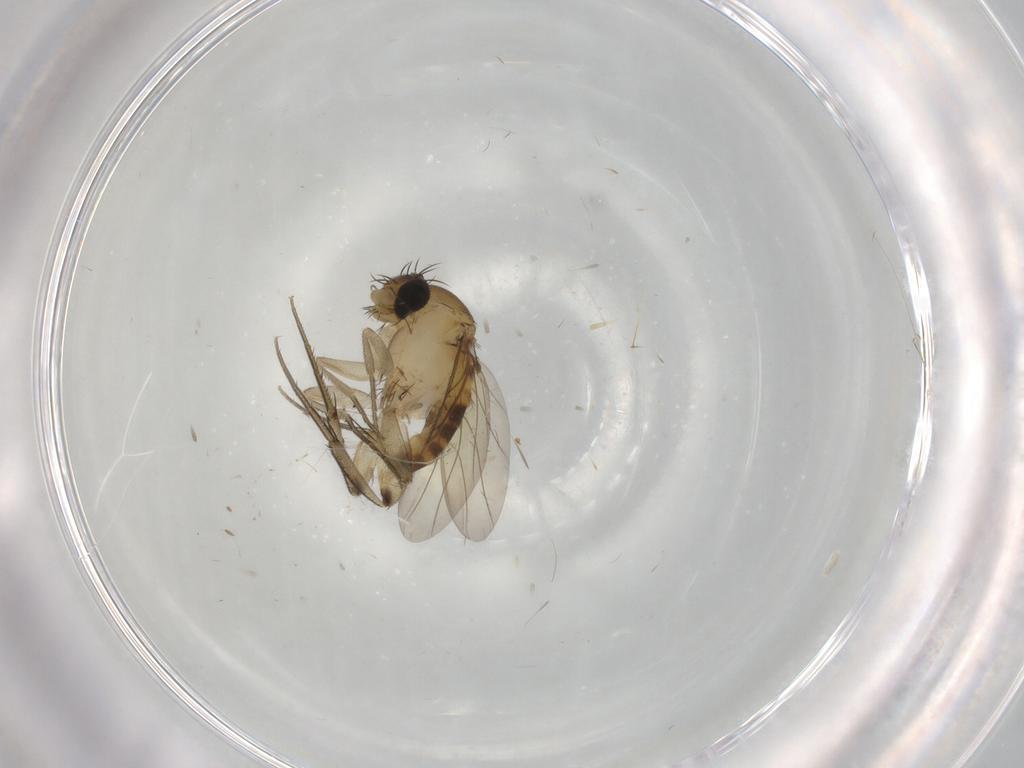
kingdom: Animalia
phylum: Arthropoda
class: Insecta
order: Diptera
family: Phoridae
